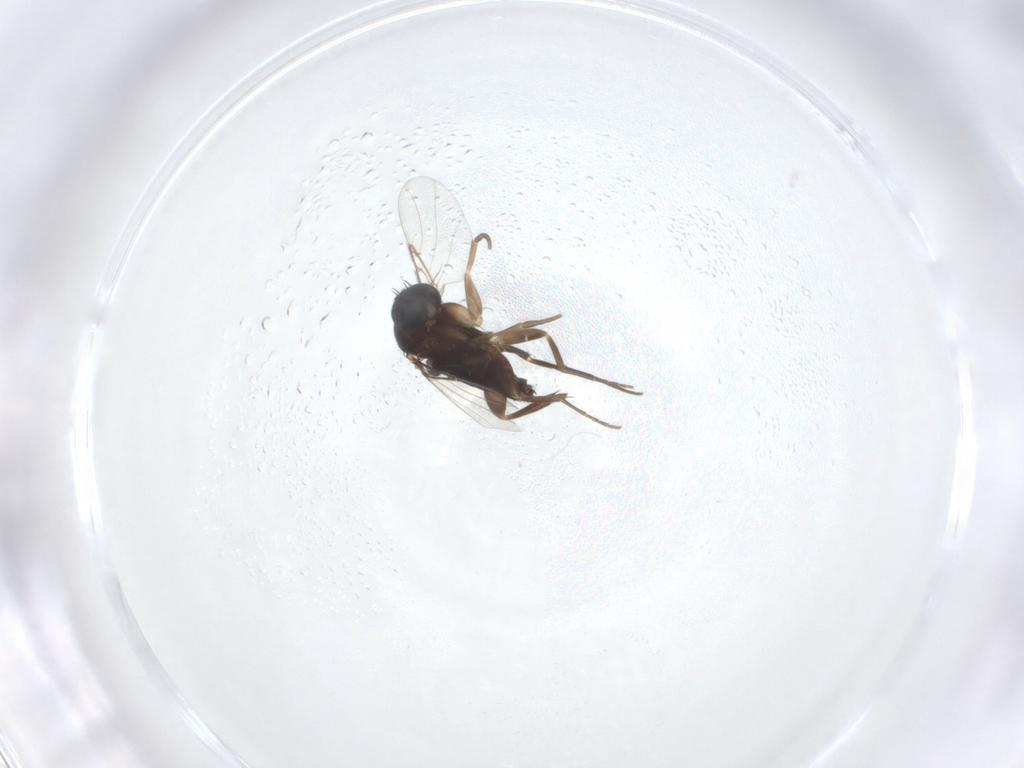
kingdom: Animalia
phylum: Arthropoda
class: Insecta
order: Diptera
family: Phoridae
